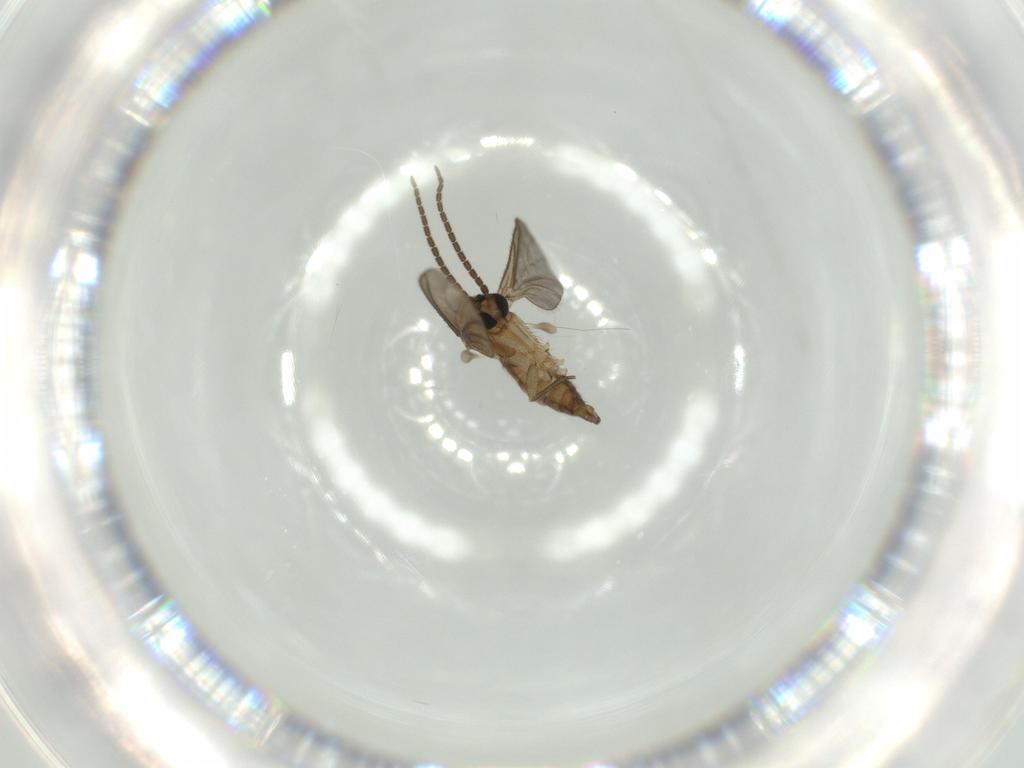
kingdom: Animalia
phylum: Arthropoda
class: Insecta
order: Diptera
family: Sciaridae
